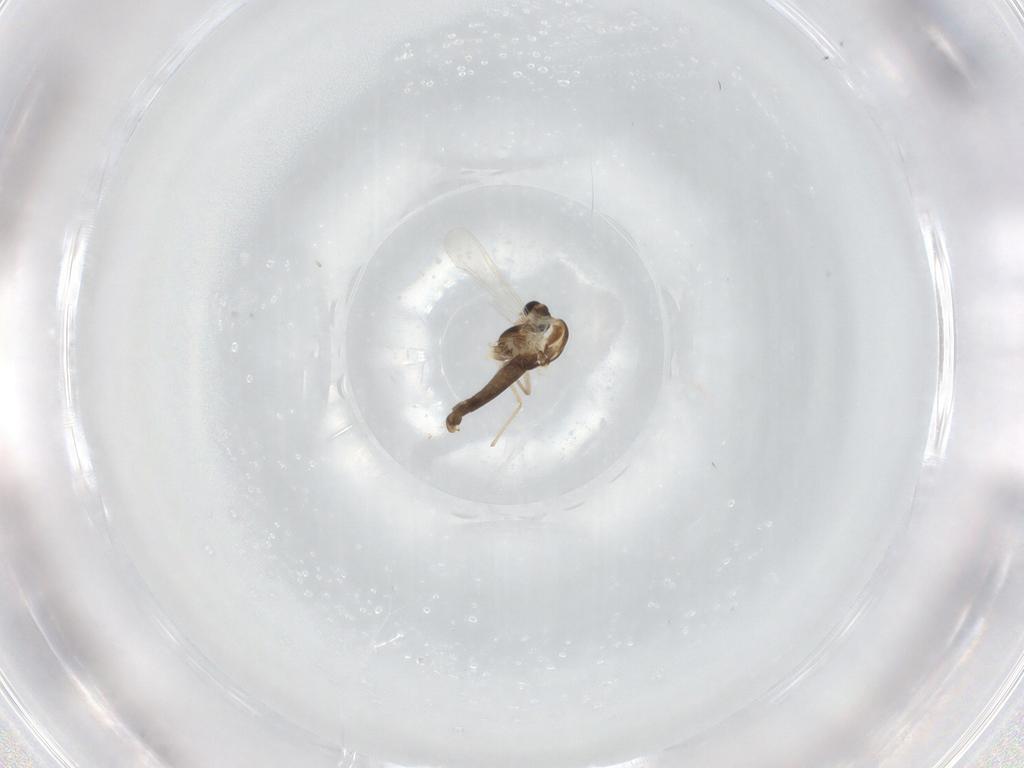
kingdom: Animalia
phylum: Arthropoda
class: Insecta
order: Diptera
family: Chironomidae
